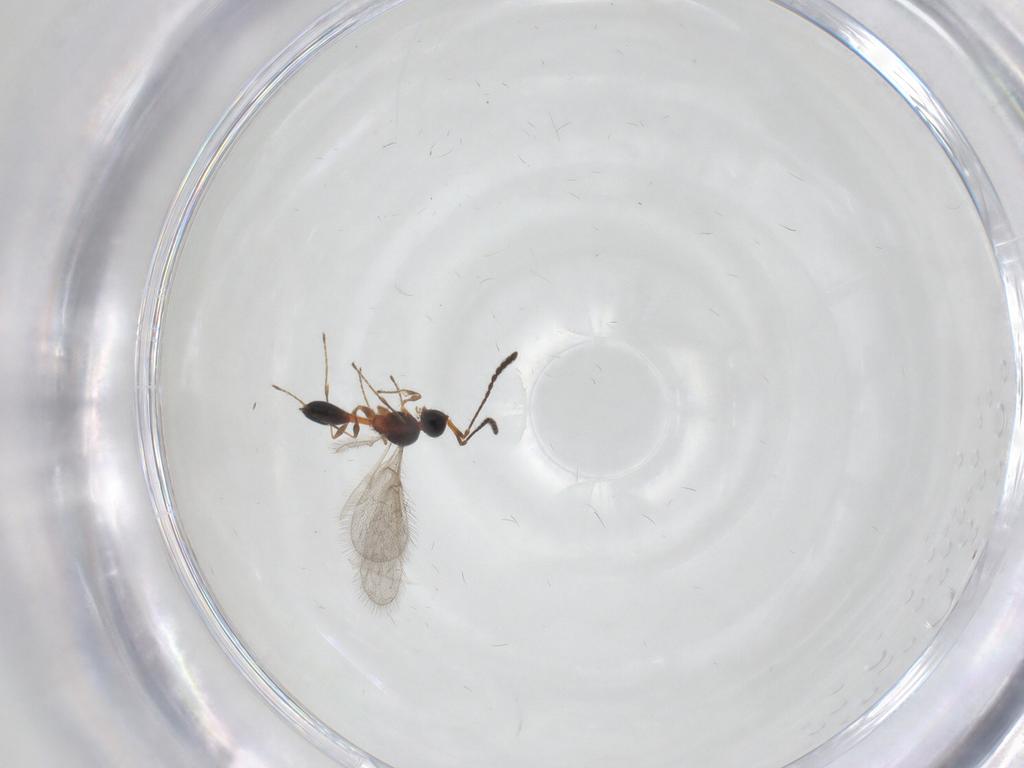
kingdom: Animalia
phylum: Arthropoda
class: Insecta
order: Hymenoptera
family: Diapriidae
